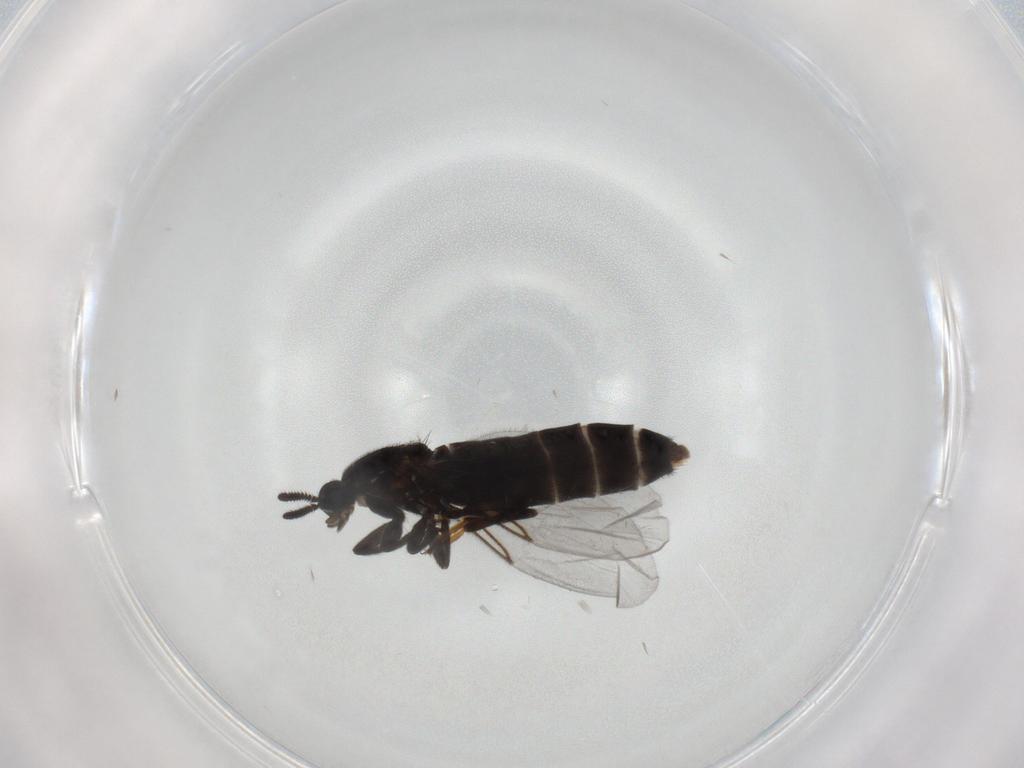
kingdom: Animalia
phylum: Arthropoda
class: Insecta
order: Diptera
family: Scatopsidae
